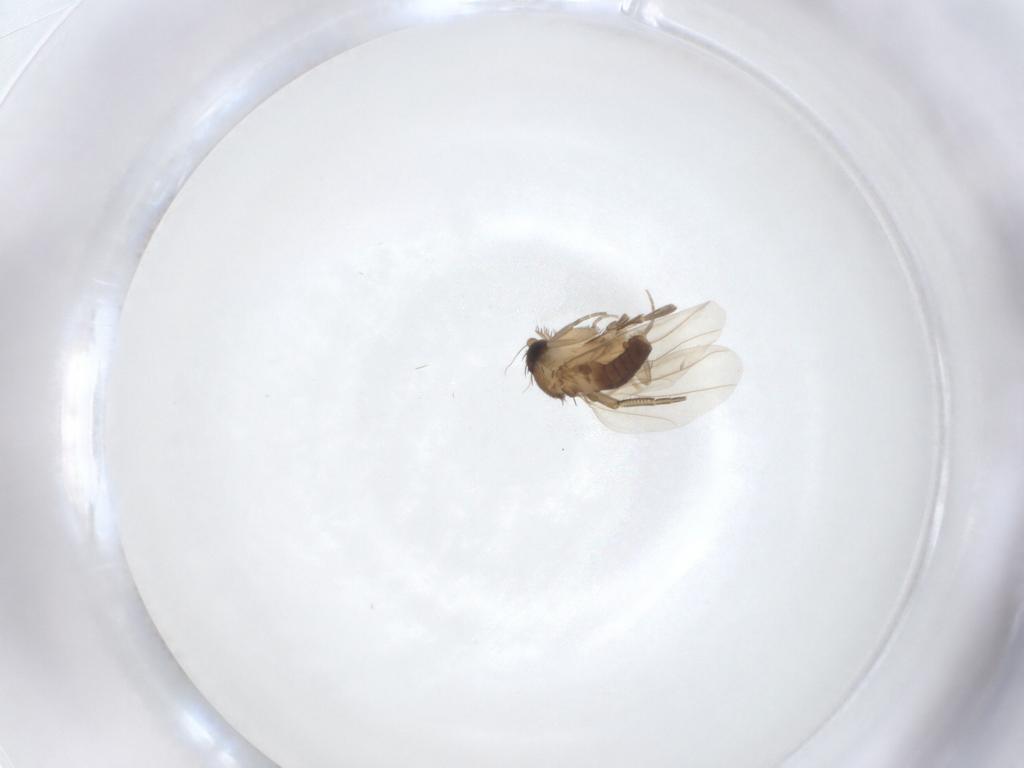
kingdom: Animalia
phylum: Arthropoda
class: Insecta
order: Diptera
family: Phoridae
